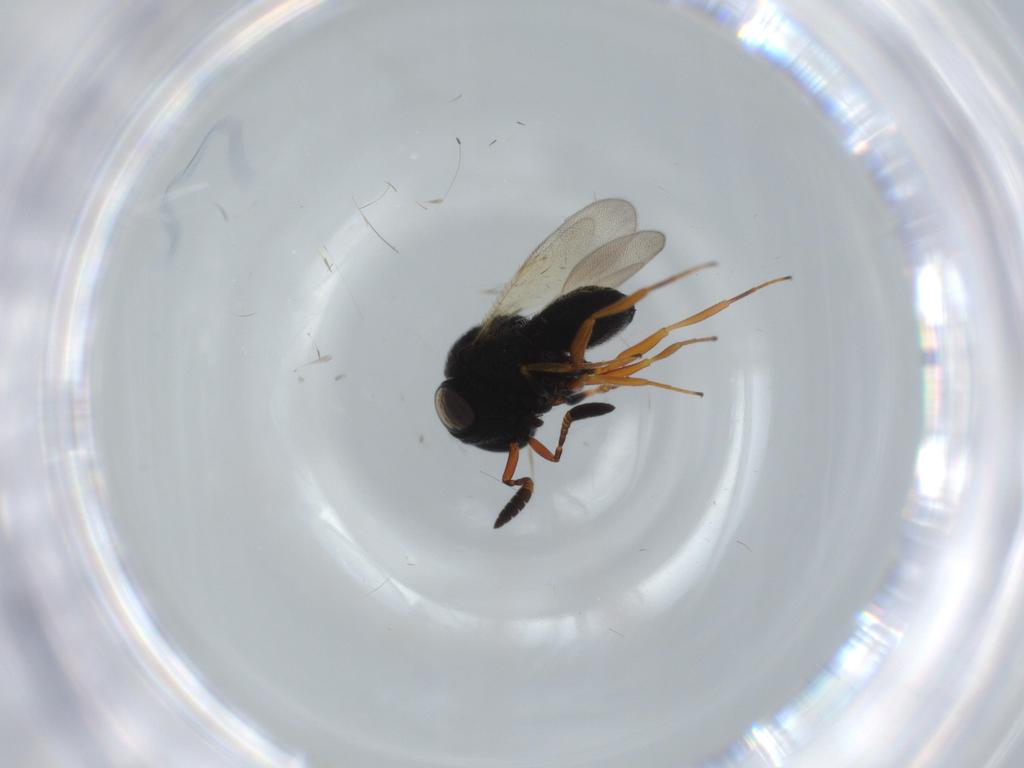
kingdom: Animalia
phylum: Arthropoda
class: Insecta
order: Hymenoptera
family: Scelionidae
